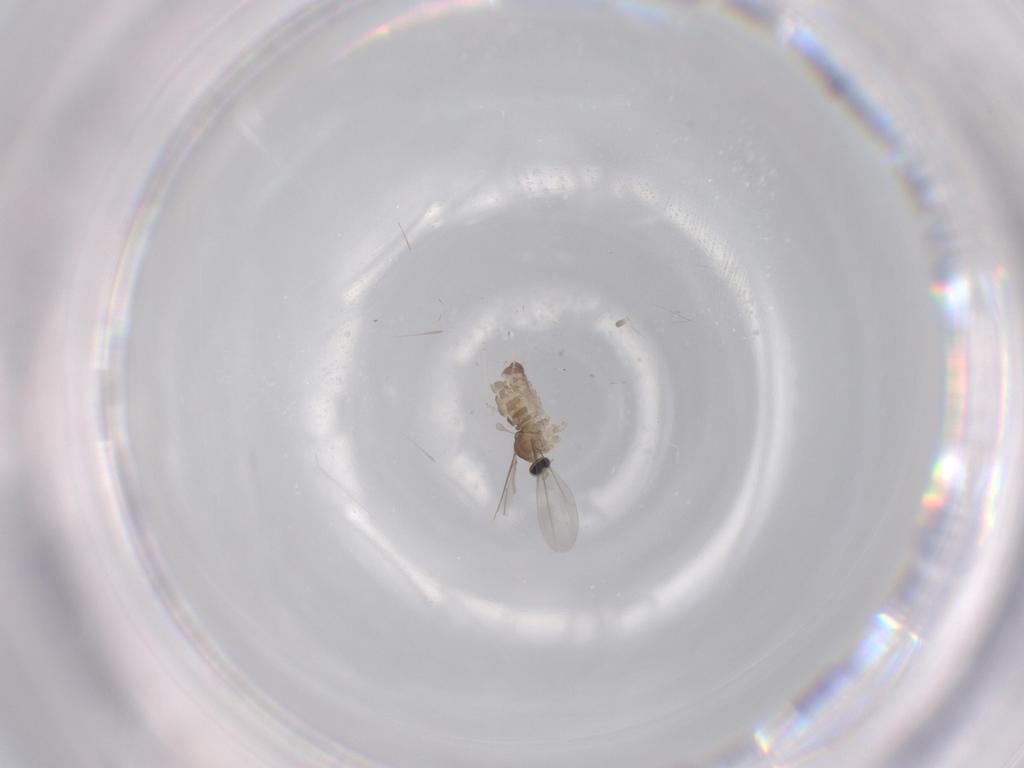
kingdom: Animalia
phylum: Arthropoda
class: Insecta
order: Diptera
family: Cecidomyiidae
